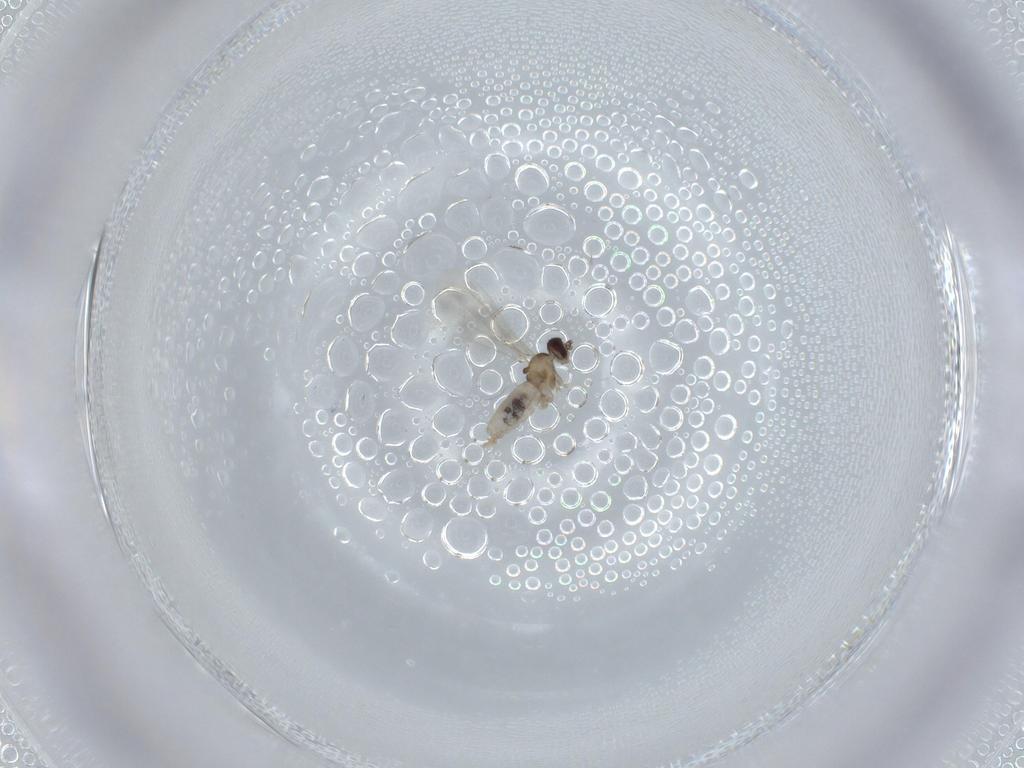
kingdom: Animalia
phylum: Arthropoda
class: Insecta
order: Diptera
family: Cecidomyiidae
